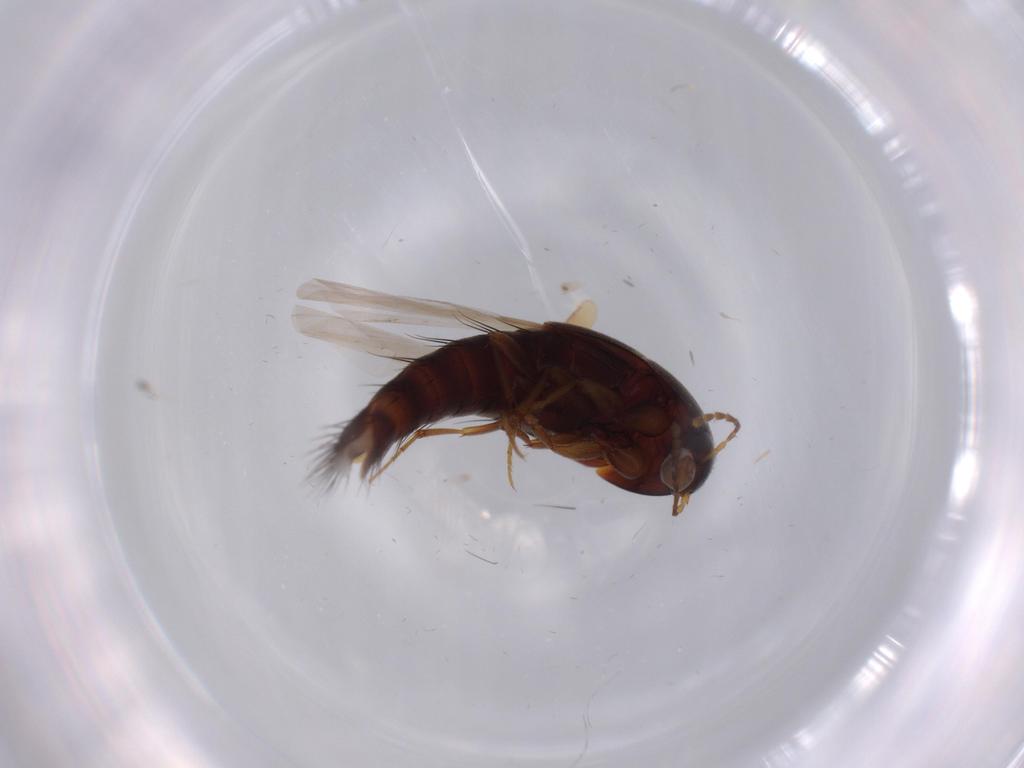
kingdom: Animalia
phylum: Arthropoda
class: Insecta
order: Coleoptera
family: Staphylinidae
